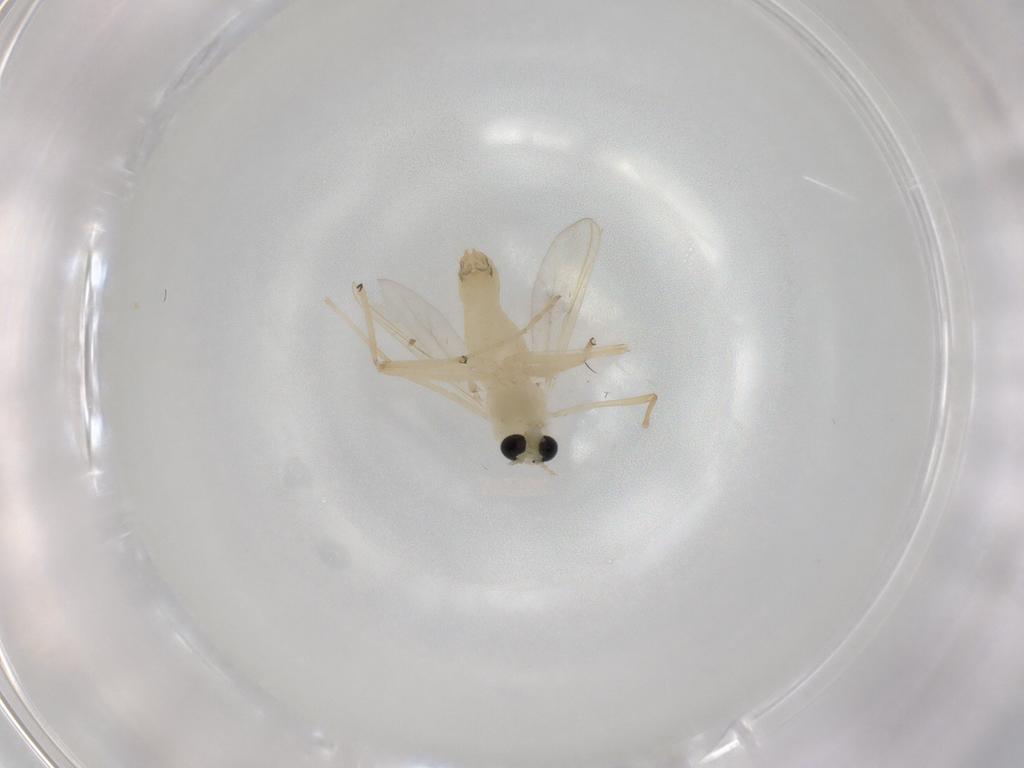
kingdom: Animalia
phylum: Arthropoda
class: Insecta
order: Diptera
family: Chironomidae
